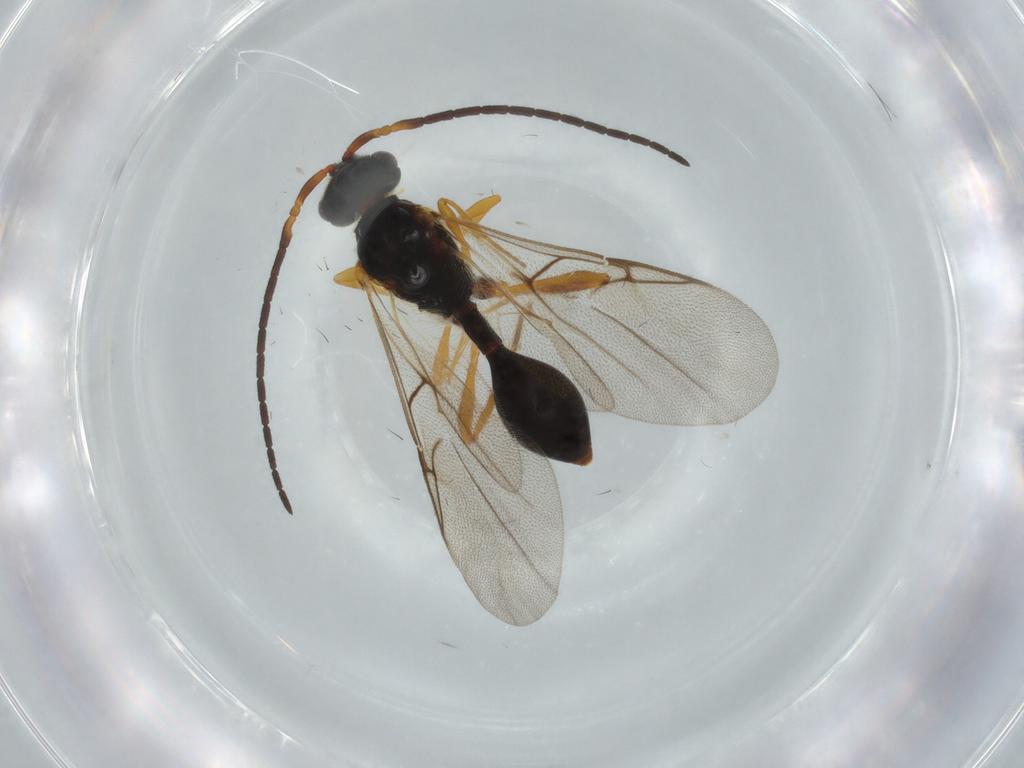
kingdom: Animalia
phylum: Arthropoda
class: Insecta
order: Hymenoptera
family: Diapriidae
